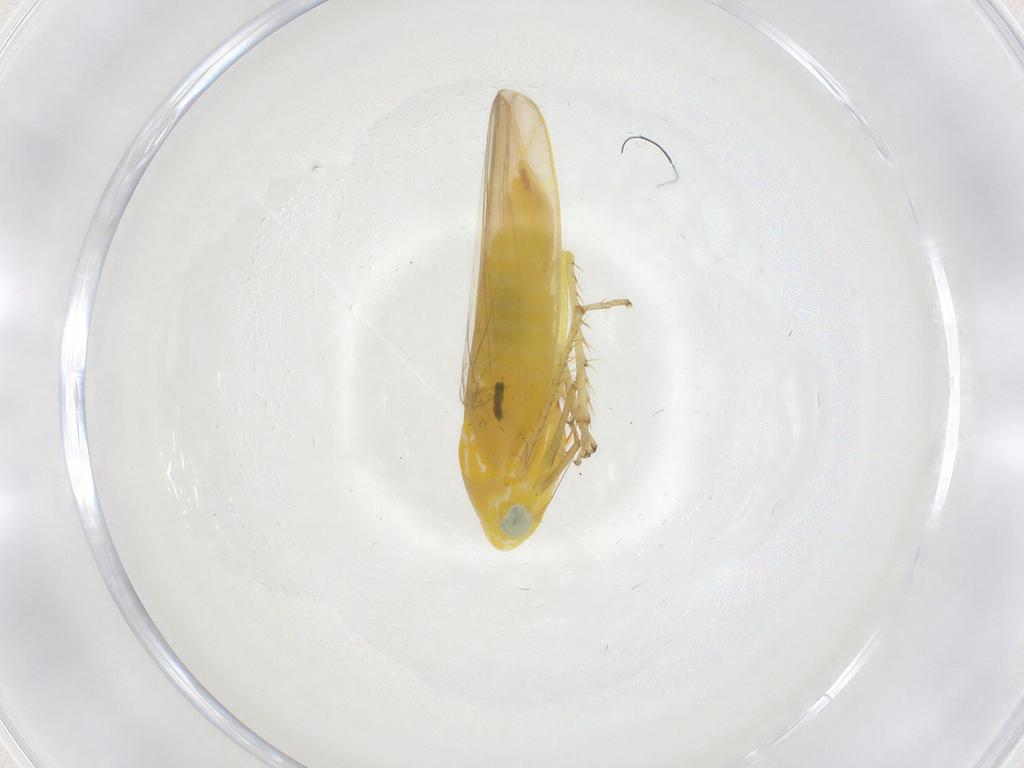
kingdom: Animalia
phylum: Arthropoda
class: Insecta
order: Hemiptera
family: Cicadellidae
